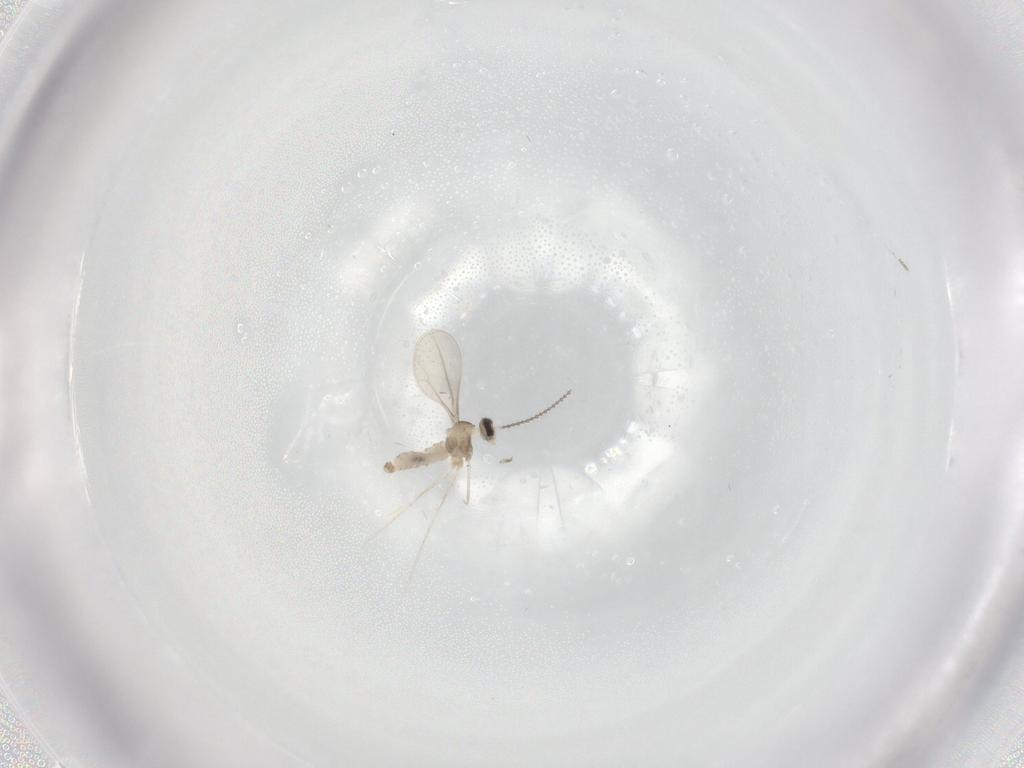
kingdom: Animalia
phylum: Arthropoda
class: Insecta
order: Diptera
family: Cecidomyiidae
